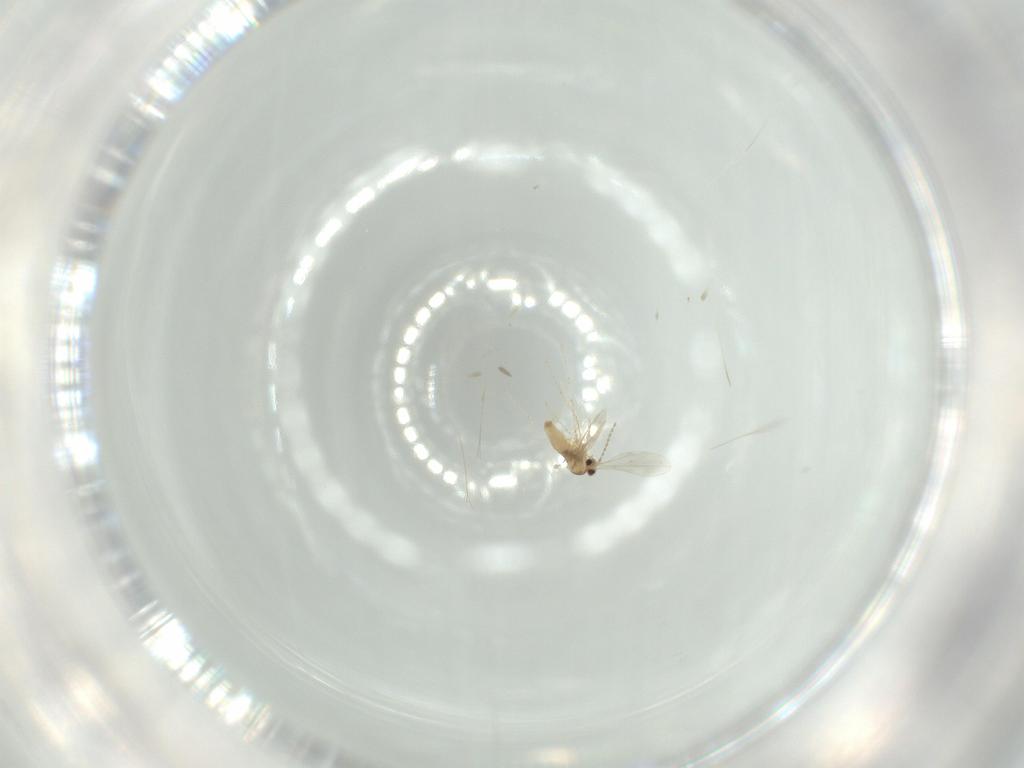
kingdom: Animalia
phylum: Arthropoda
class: Insecta
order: Diptera
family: Cecidomyiidae
